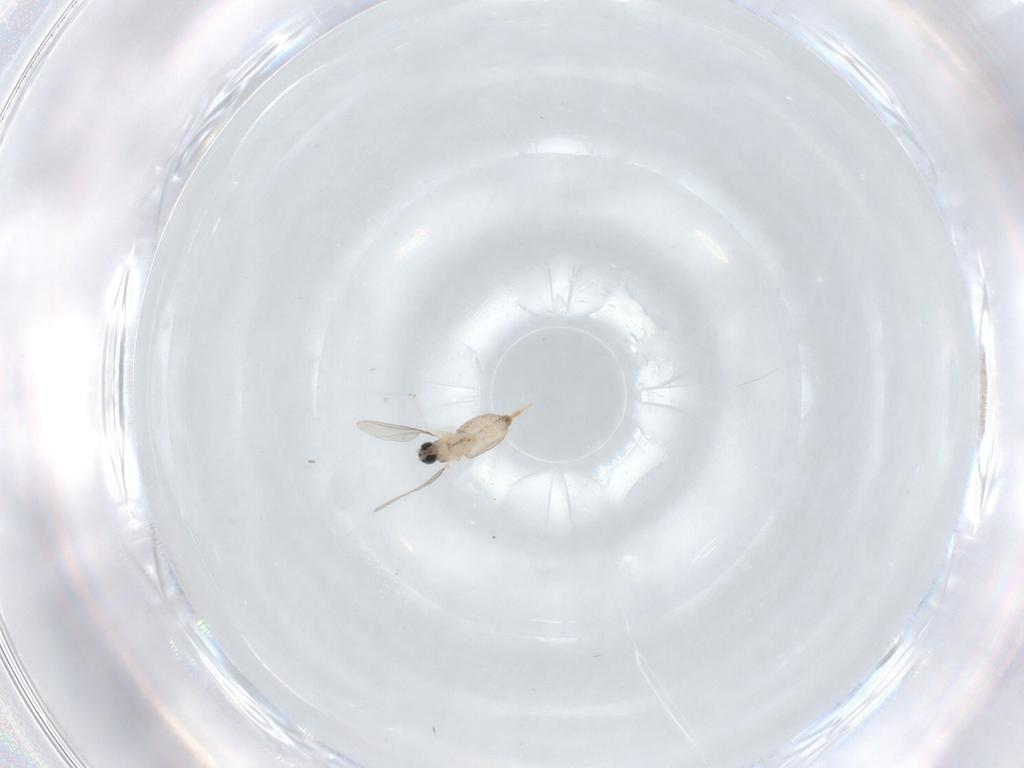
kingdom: Animalia
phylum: Arthropoda
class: Insecta
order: Diptera
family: Cecidomyiidae
